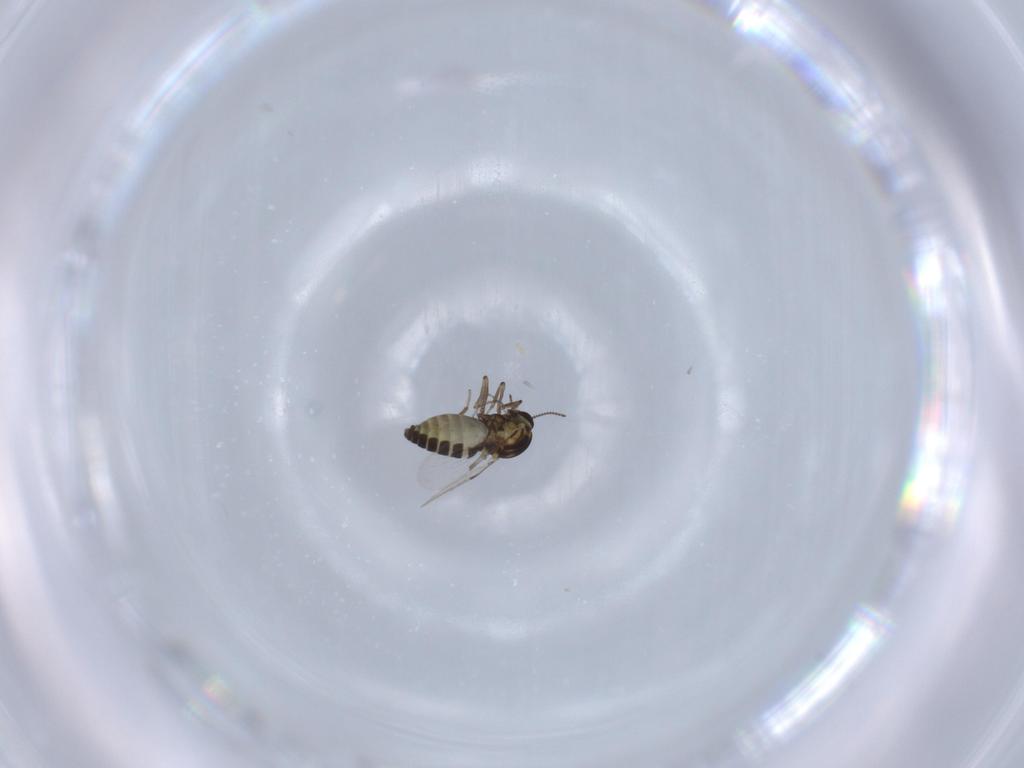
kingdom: Animalia
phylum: Arthropoda
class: Insecta
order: Diptera
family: Ceratopogonidae
